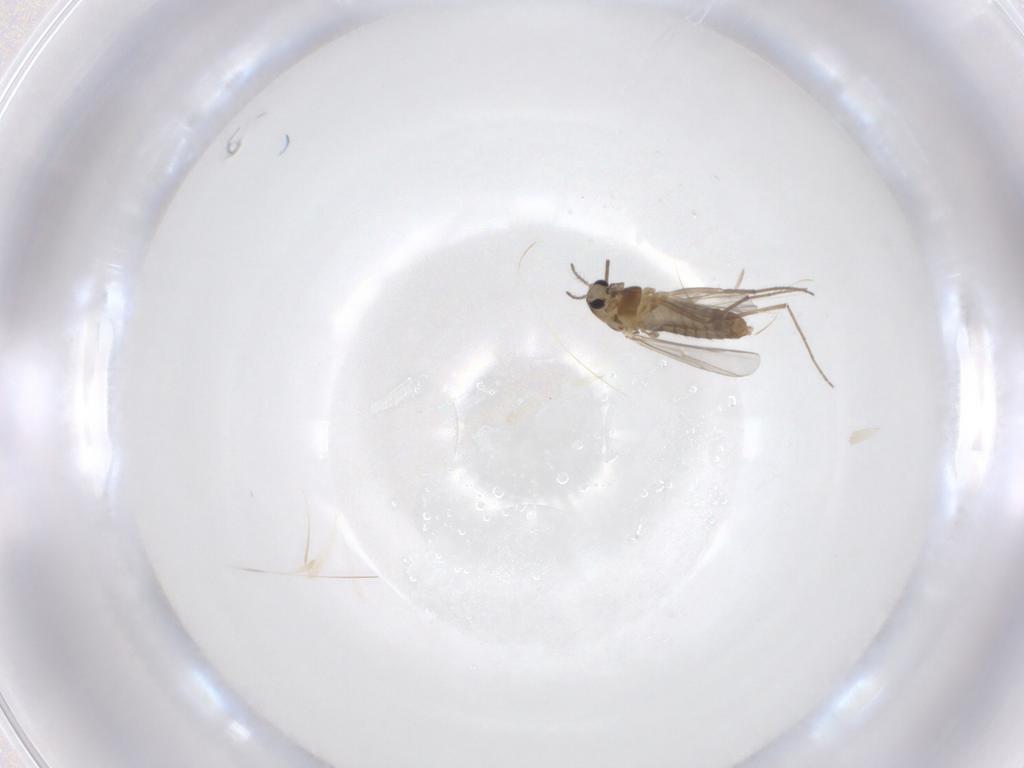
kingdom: Animalia
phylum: Arthropoda
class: Insecta
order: Diptera
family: Chironomidae
